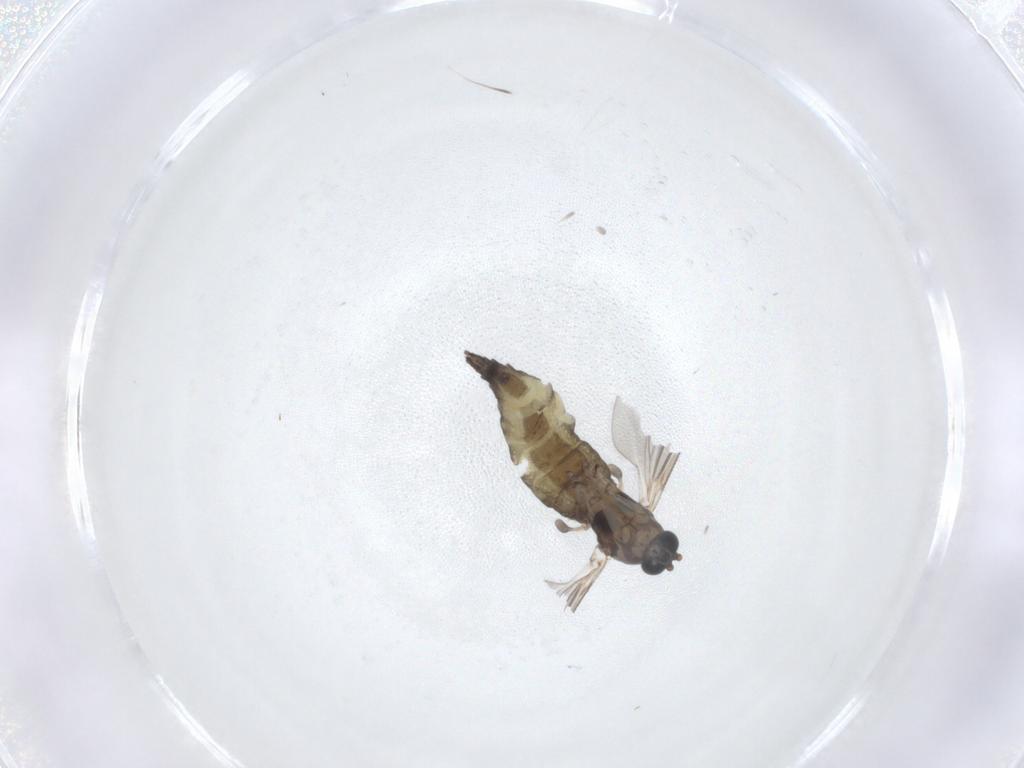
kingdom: Animalia
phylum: Arthropoda
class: Insecta
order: Diptera
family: Sciaridae
